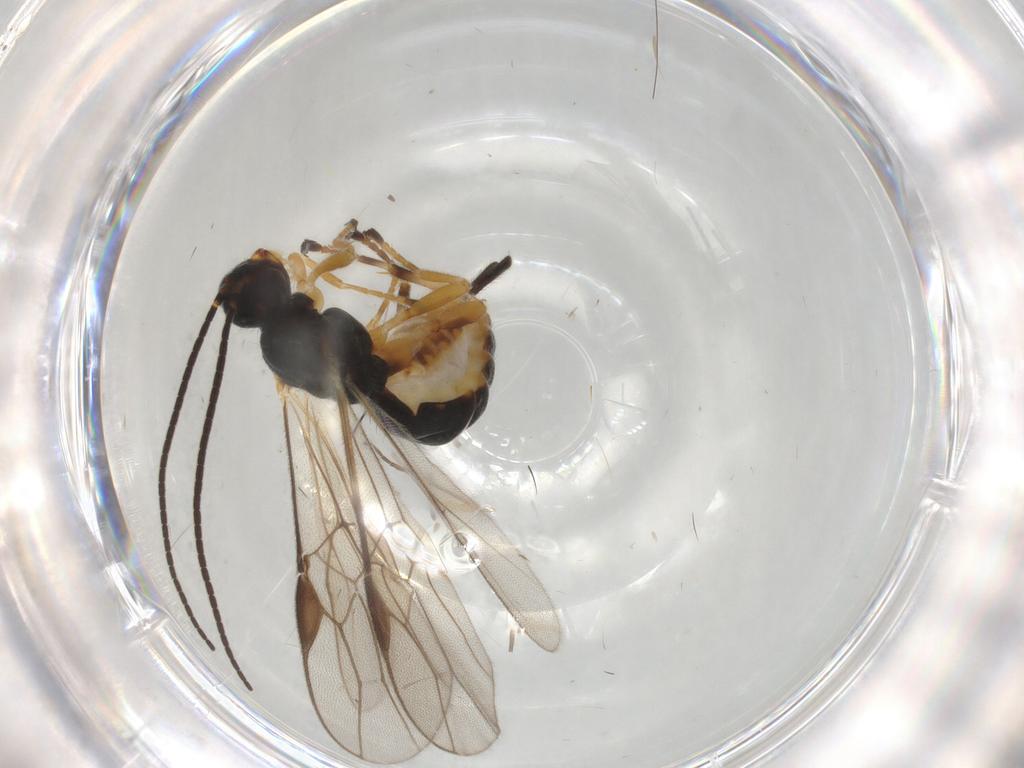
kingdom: Animalia
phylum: Arthropoda
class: Insecta
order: Hymenoptera
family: Braconidae
